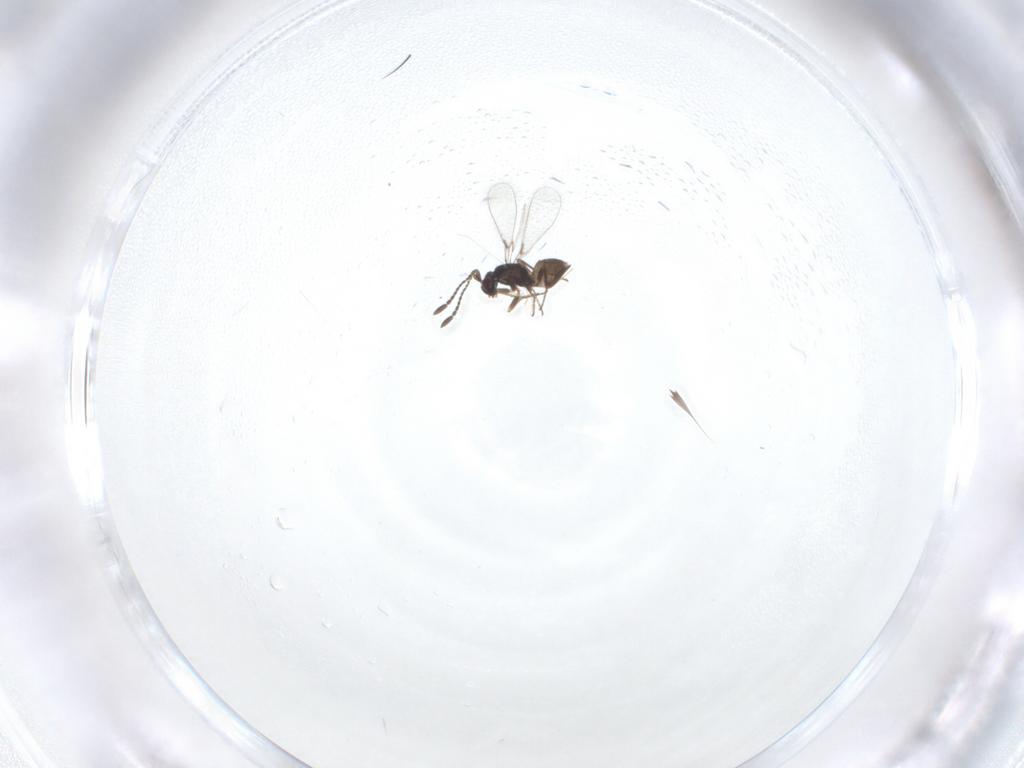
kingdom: Animalia
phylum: Arthropoda
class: Insecta
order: Hymenoptera
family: Mymaridae
